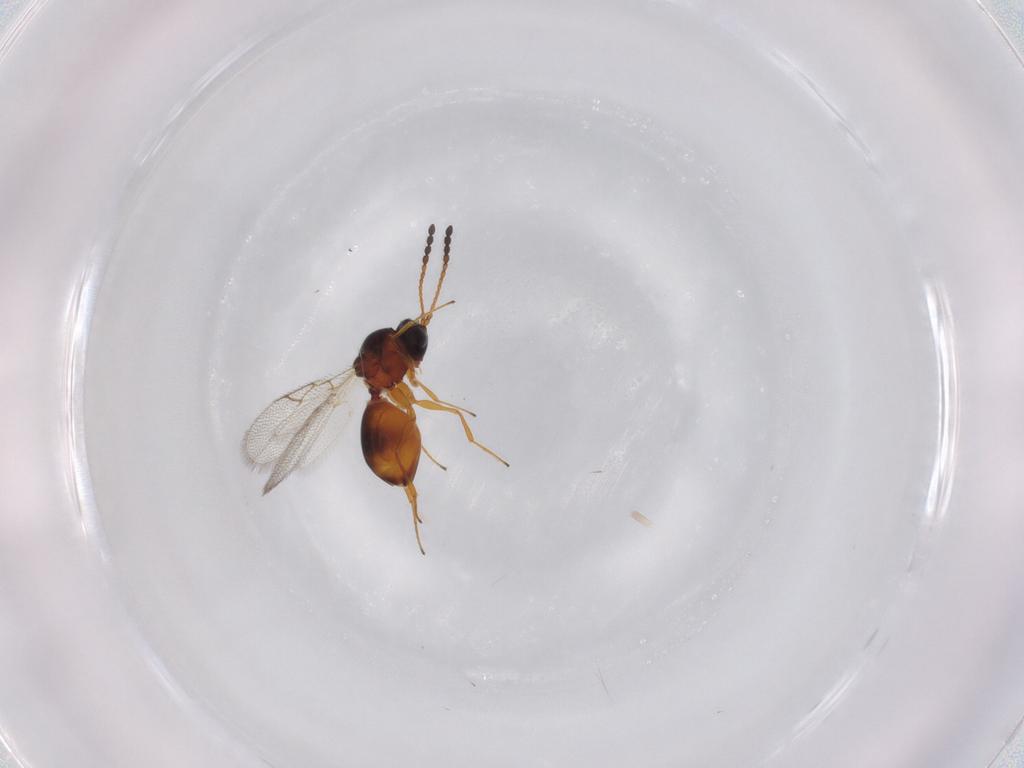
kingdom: Animalia
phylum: Arthropoda
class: Insecta
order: Hymenoptera
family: Figitidae
